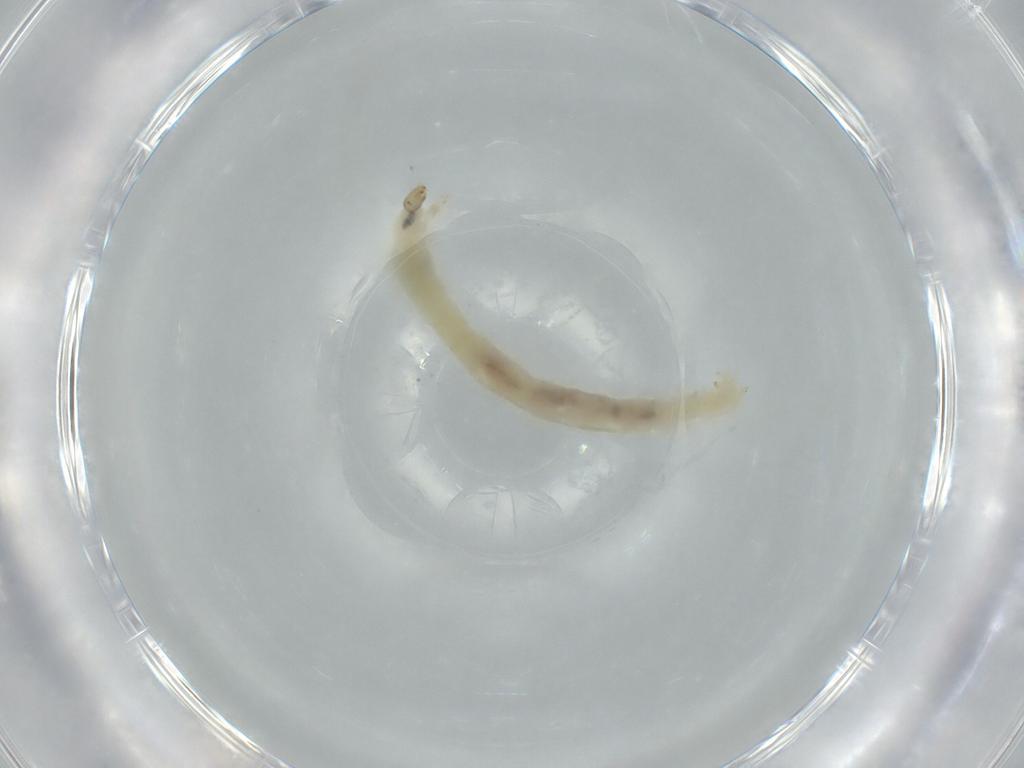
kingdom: Animalia
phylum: Arthropoda
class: Insecta
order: Diptera
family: Chironomidae
